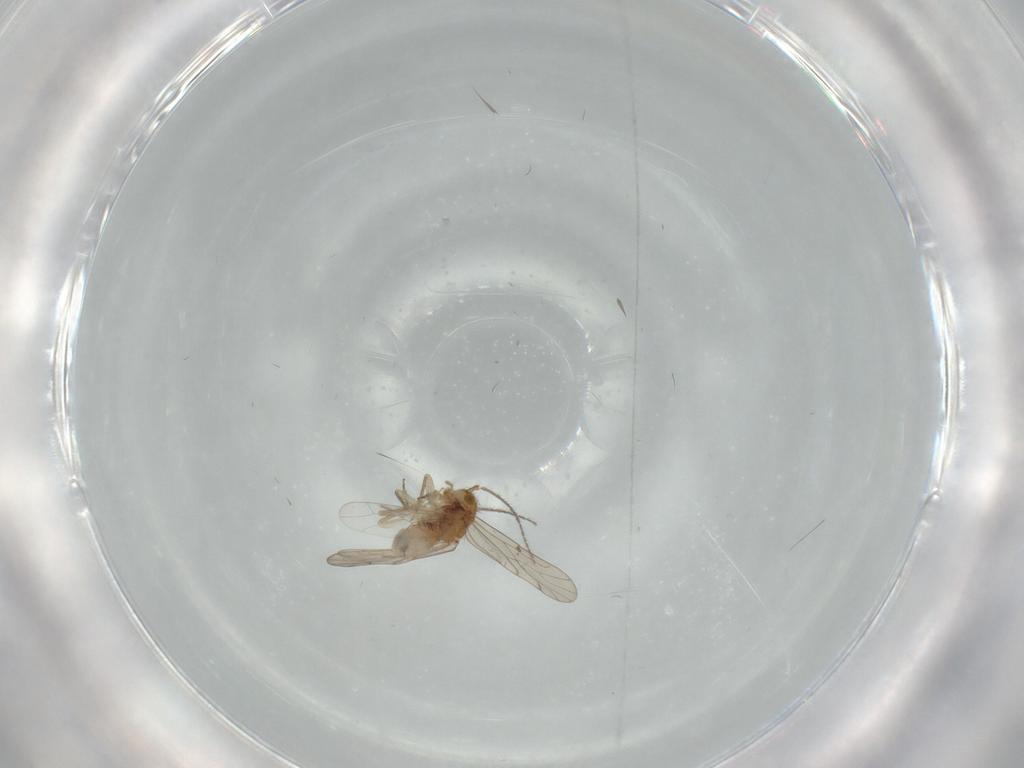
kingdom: Animalia
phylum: Arthropoda
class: Insecta
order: Psocodea
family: Ectopsocidae
